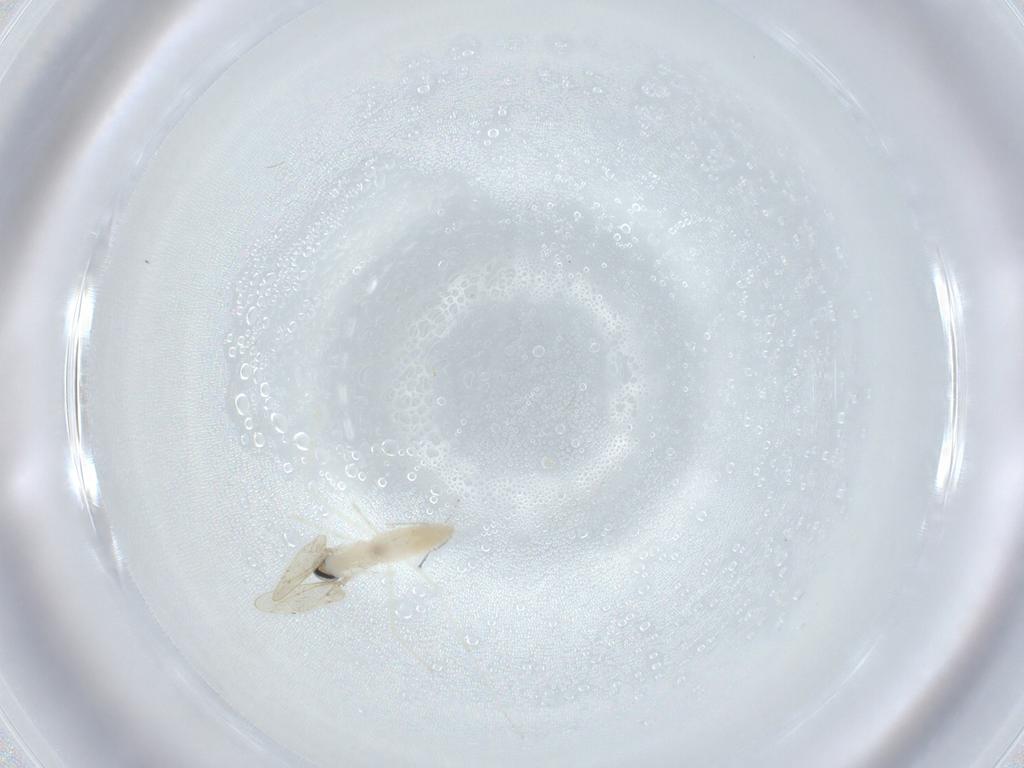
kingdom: Animalia
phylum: Arthropoda
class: Insecta
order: Diptera
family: Cecidomyiidae
